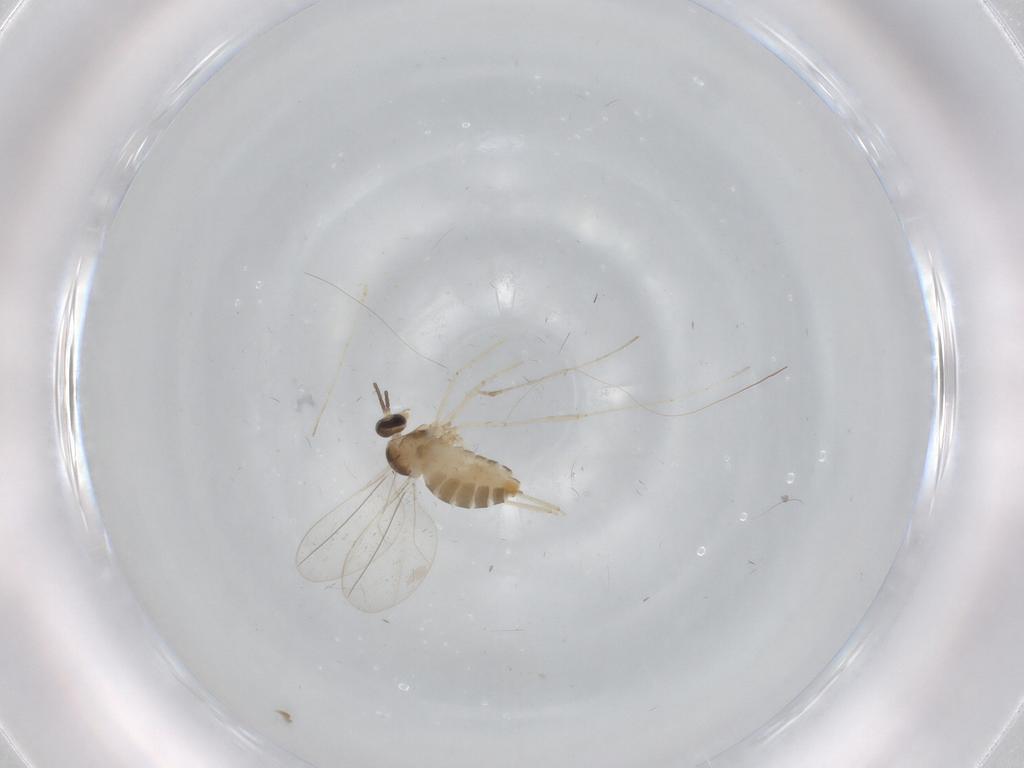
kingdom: Animalia
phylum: Arthropoda
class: Insecta
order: Diptera
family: Cecidomyiidae
